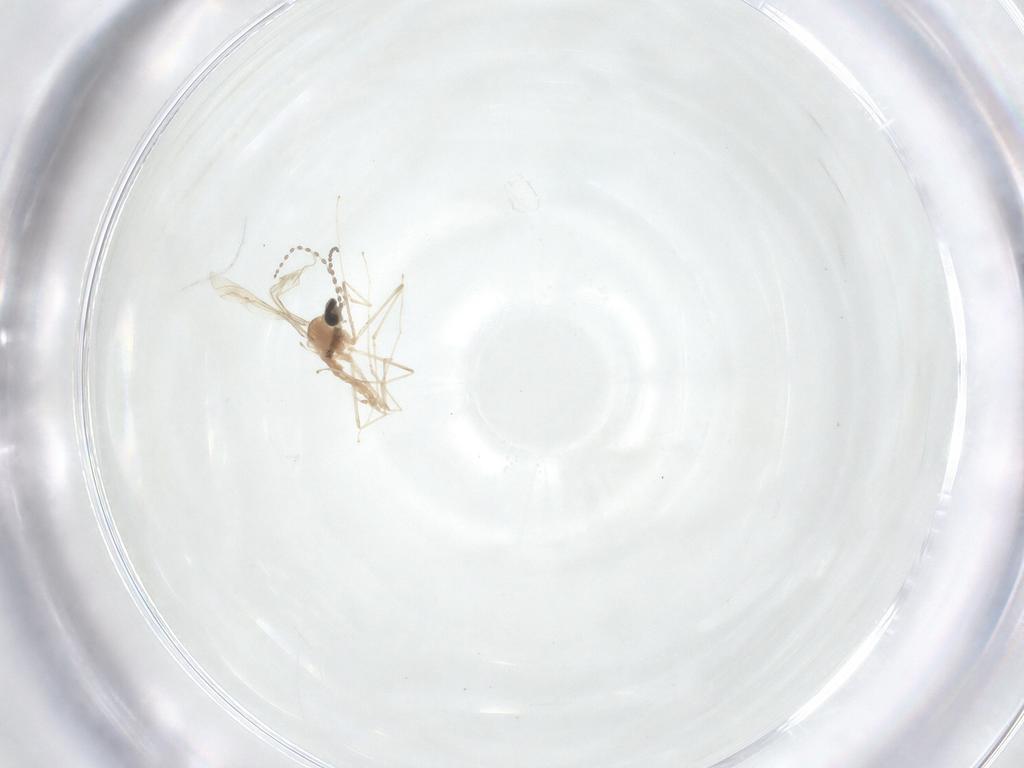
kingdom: Animalia
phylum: Arthropoda
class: Insecta
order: Diptera
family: Cecidomyiidae
